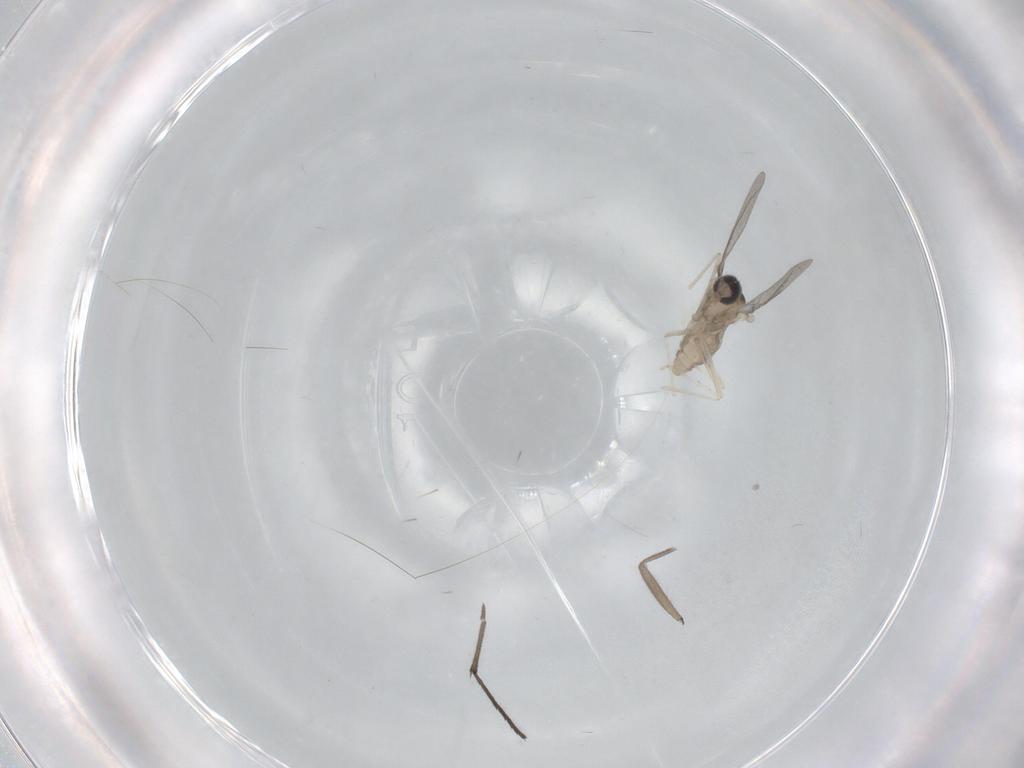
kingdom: Animalia
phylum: Arthropoda
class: Insecta
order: Diptera
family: Cecidomyiidae
